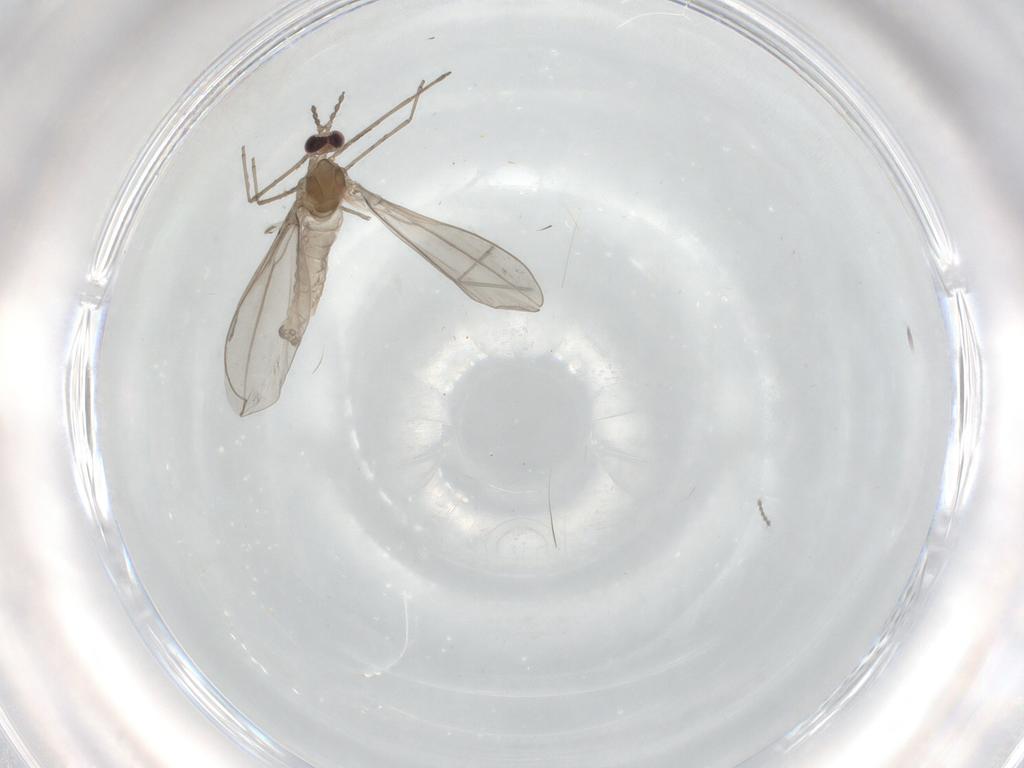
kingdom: Animalia
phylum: Arthropoda
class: Insecta
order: Diptera
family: Cecidomyiidae
